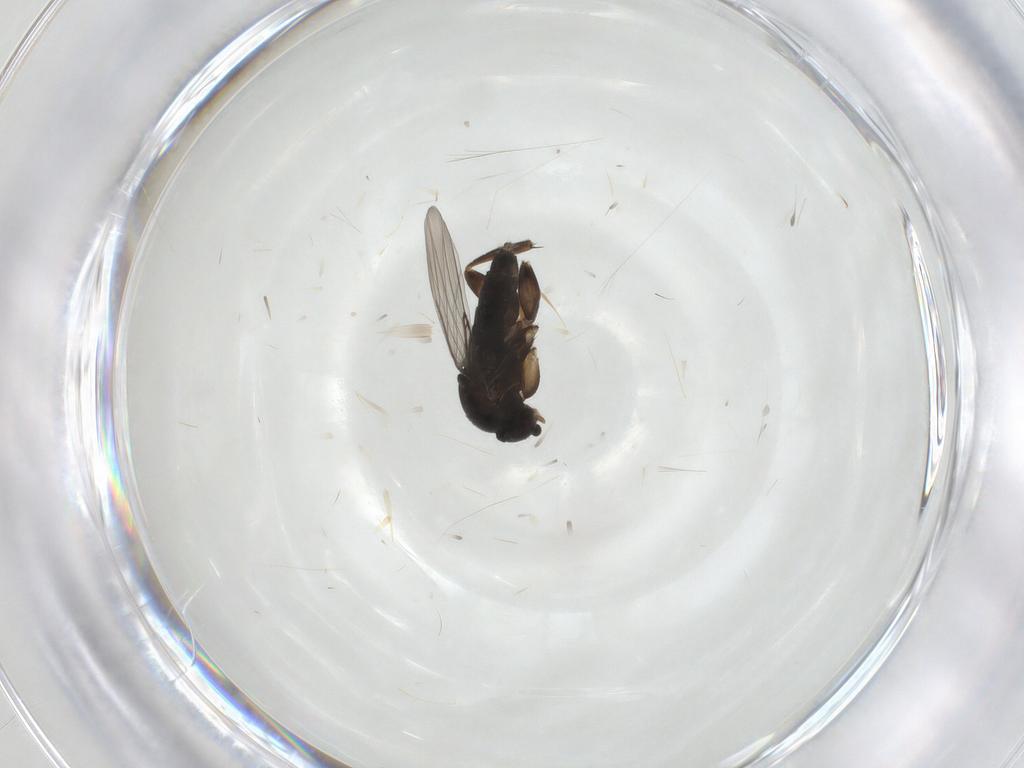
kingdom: Animalia
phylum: Arthropoda
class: Insecta
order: Diptera
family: Phoridae
